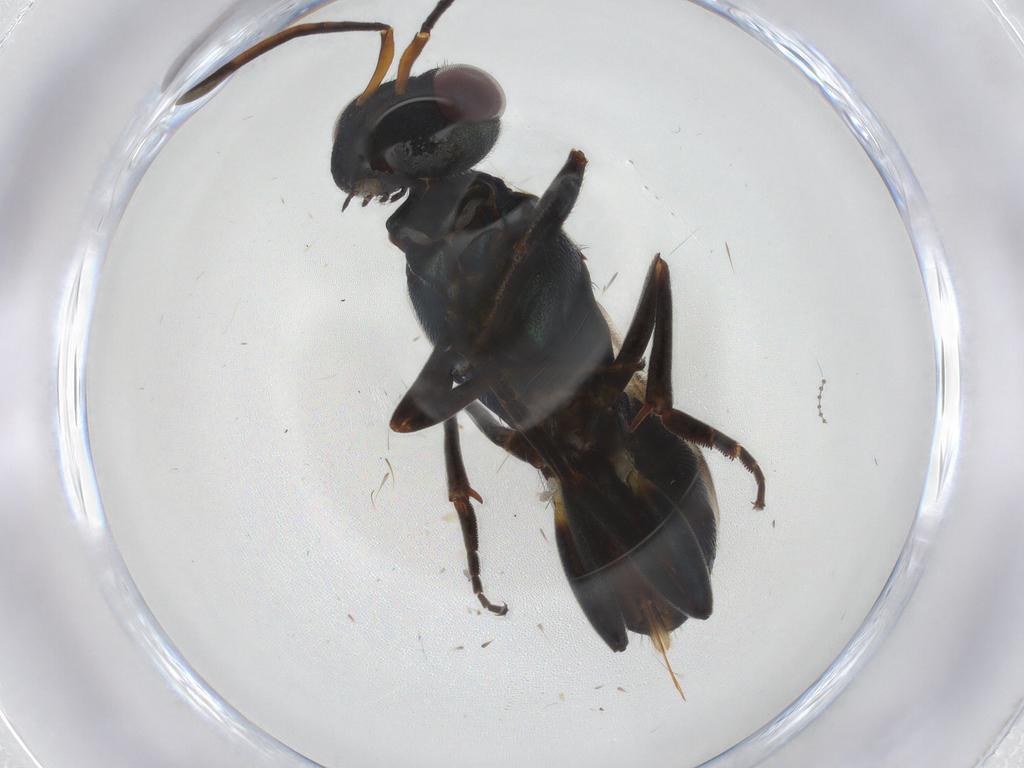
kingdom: Animalia
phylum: Arthropoda
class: Insecta
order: Hymenoptera
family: Eupelmidae
